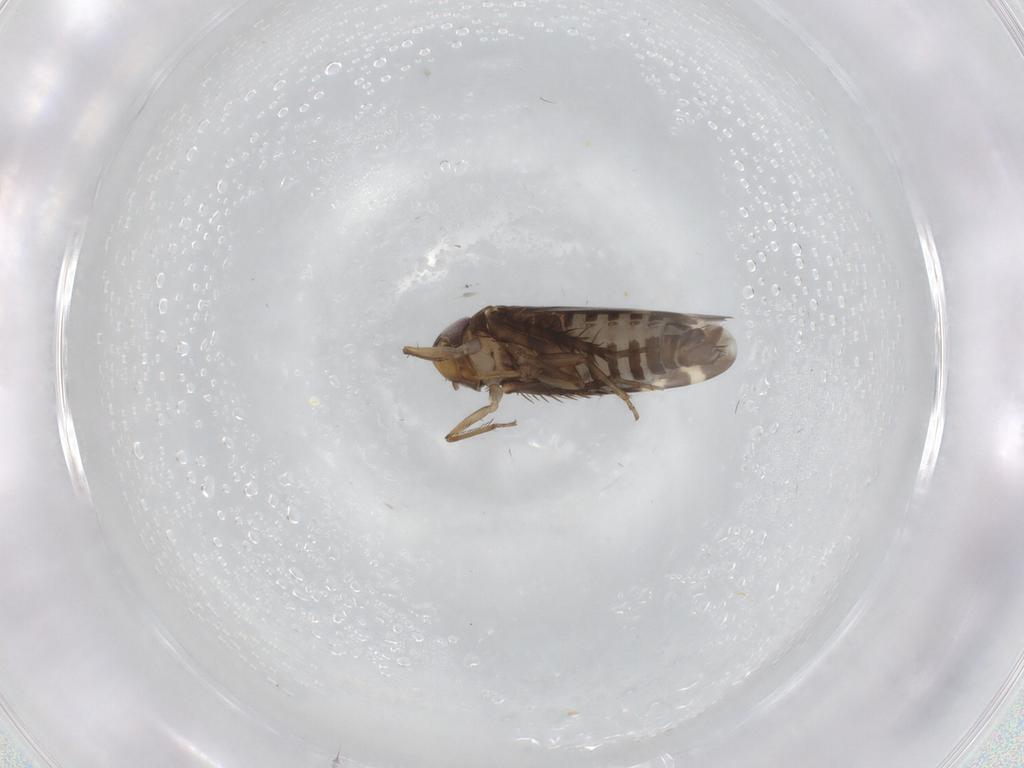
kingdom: Animalia
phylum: Arthropoda
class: Insecta
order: Hemiptera
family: Cicadellidae
